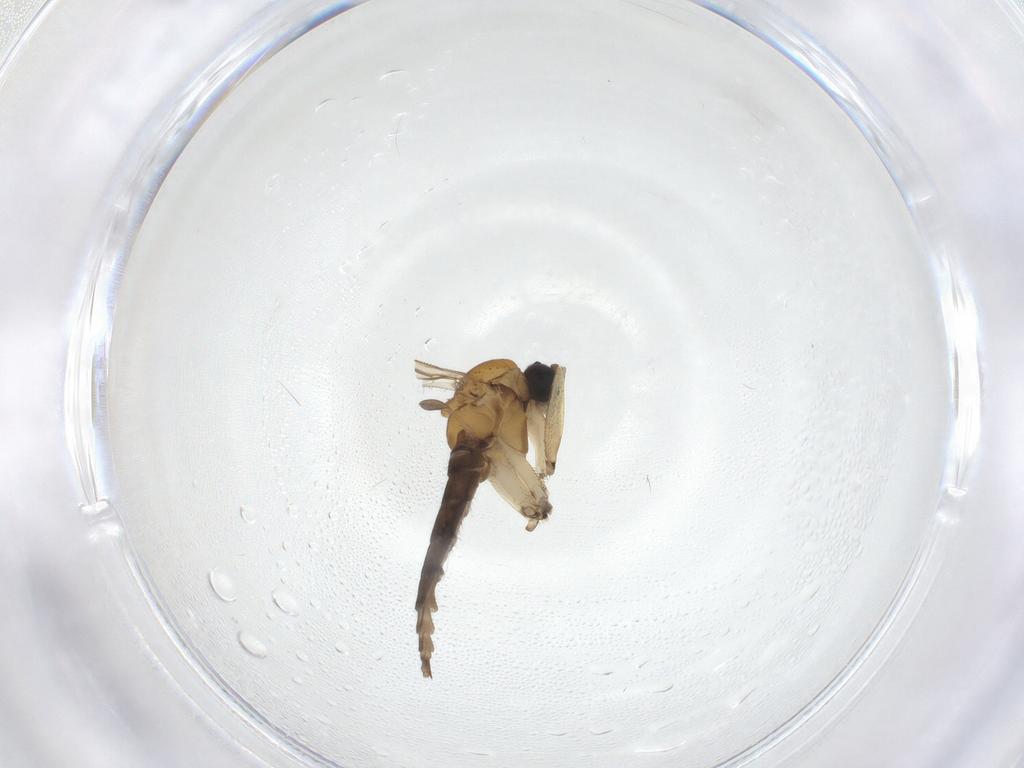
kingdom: Animalia
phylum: Arthropoda
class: Insecta
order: Diptera
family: Sciaridae
